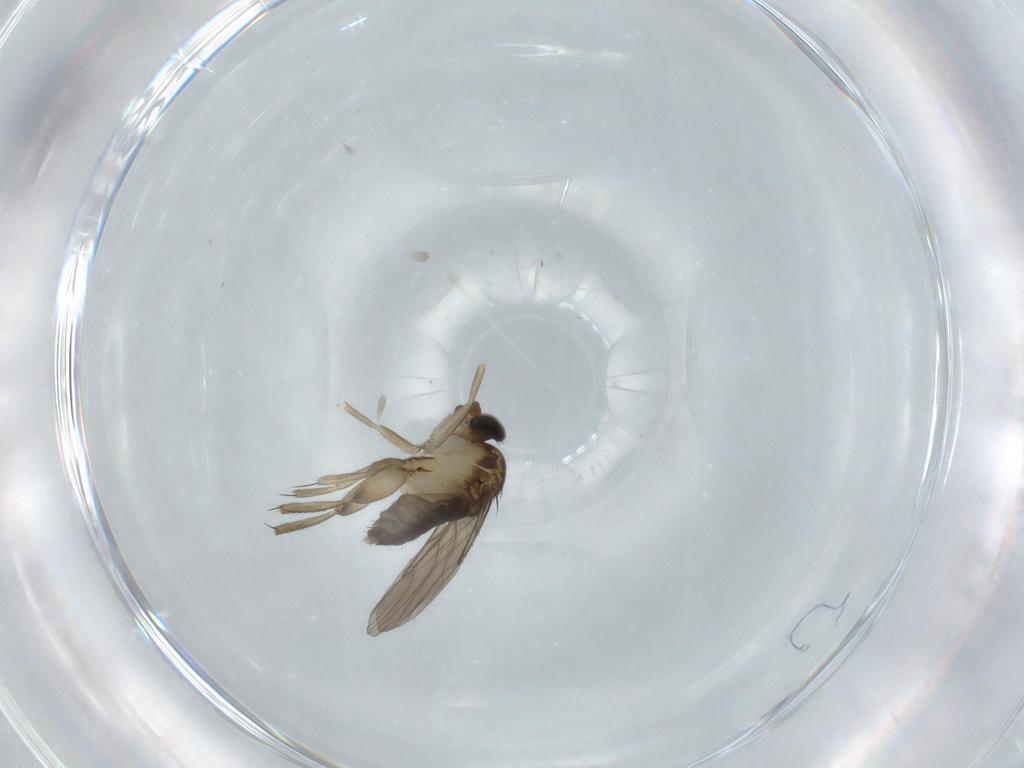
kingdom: Animalia
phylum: Arthropoda
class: Insecta
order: Diptera
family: Phoridae
